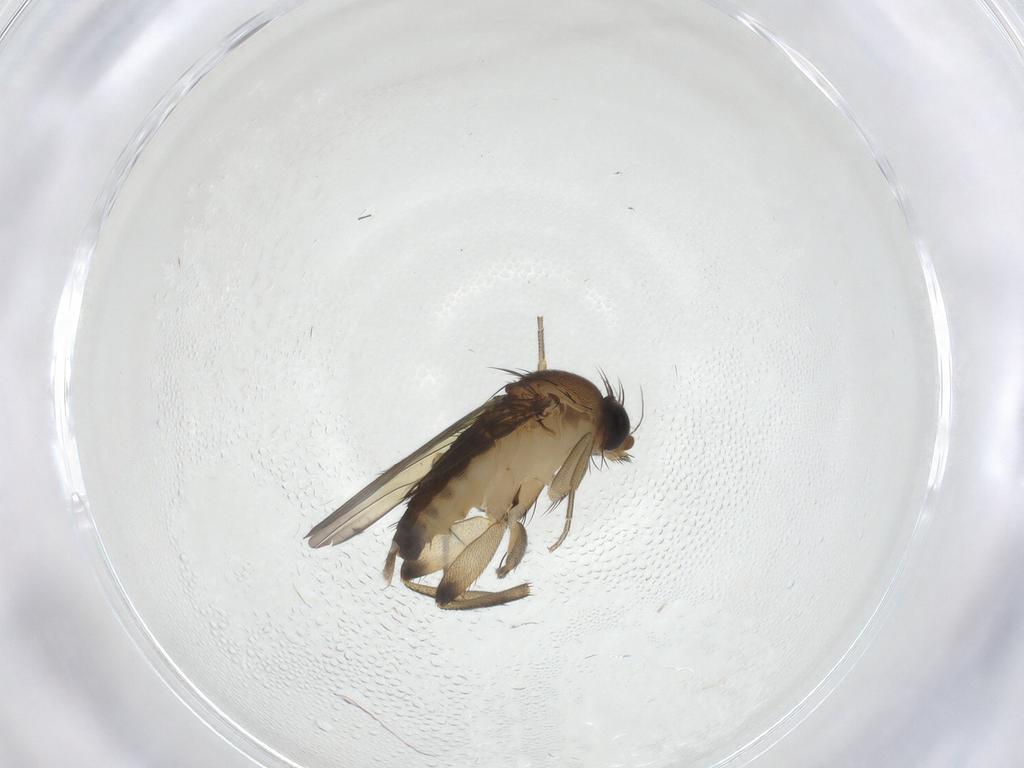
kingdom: Animalia
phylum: Arthropoda
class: Insecta
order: Diptera
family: Phoridae
